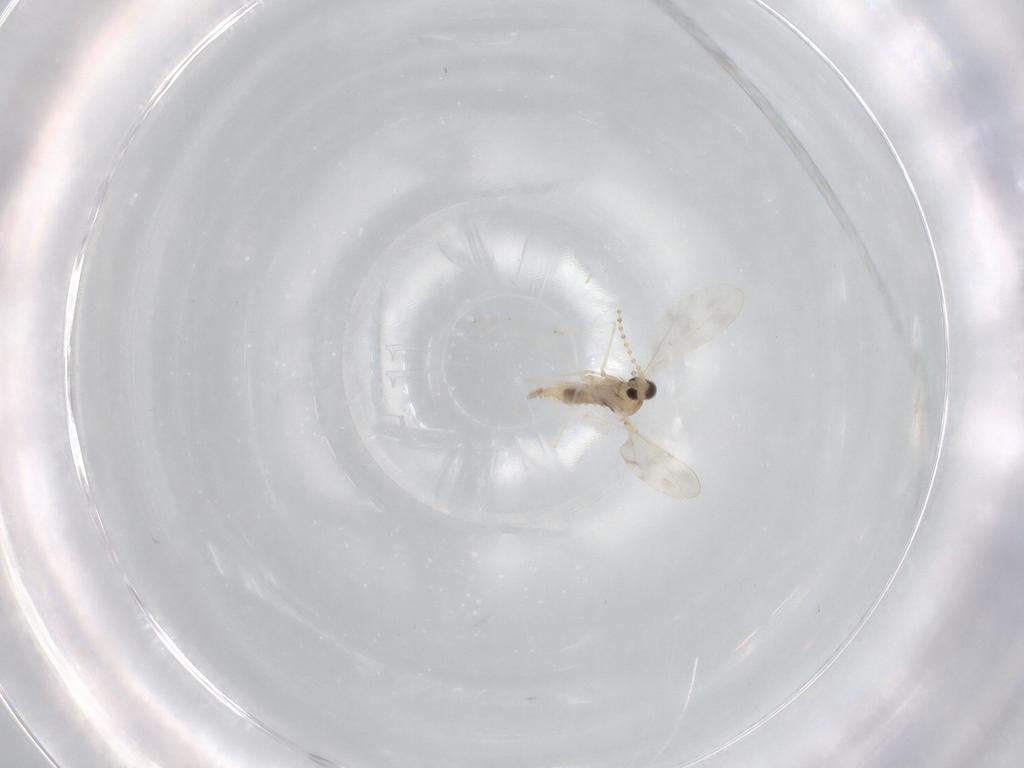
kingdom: Animalia
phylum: Arthropoda
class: Insecta
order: Diptera
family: Cecidomyiidae
